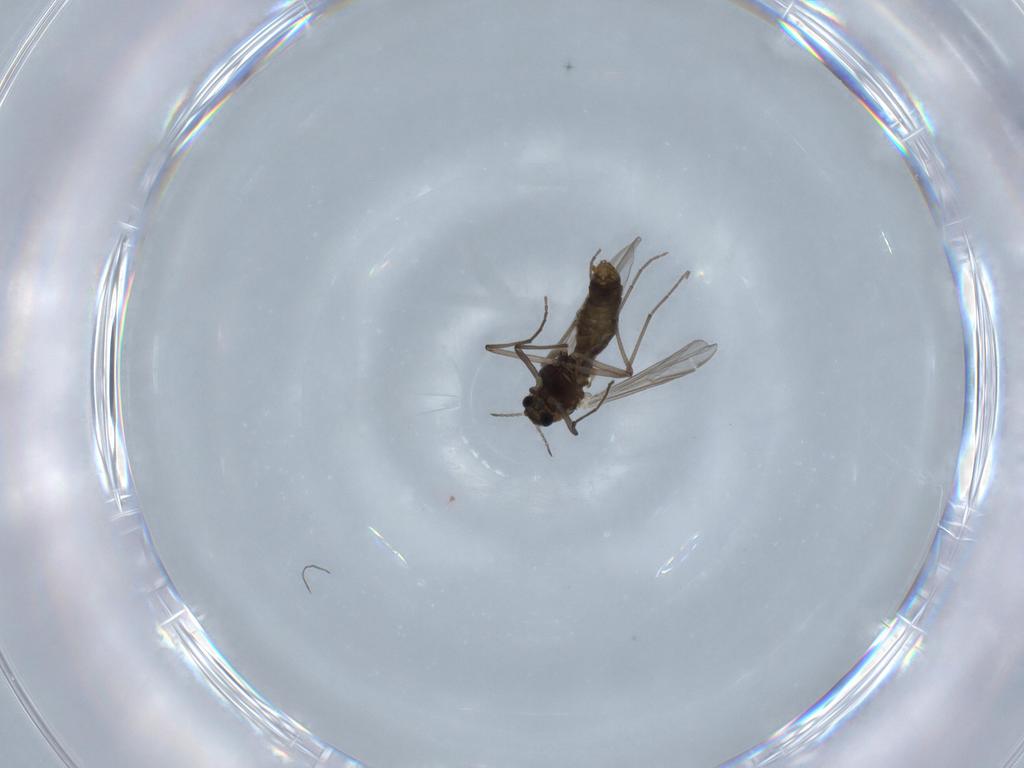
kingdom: Animalia
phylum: Arthropoda
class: Insecta
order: Diptera
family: Chironomidae
